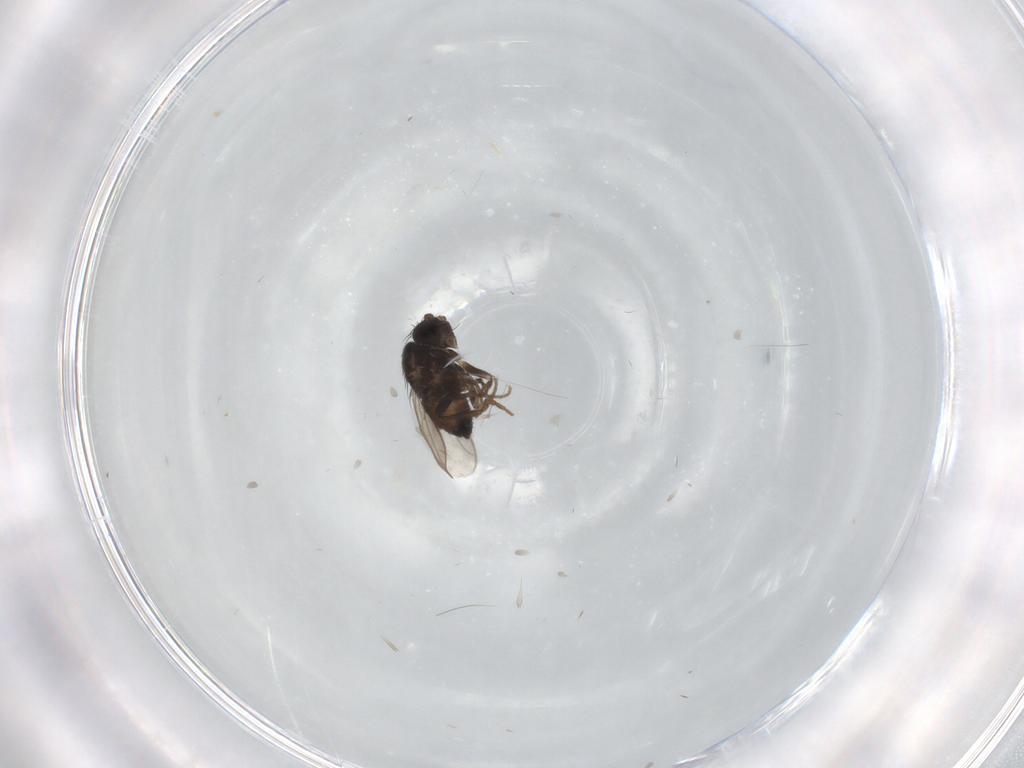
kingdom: Animalia
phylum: Arthropoda
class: Insecta
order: Diptera
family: Sphaeroceridae
